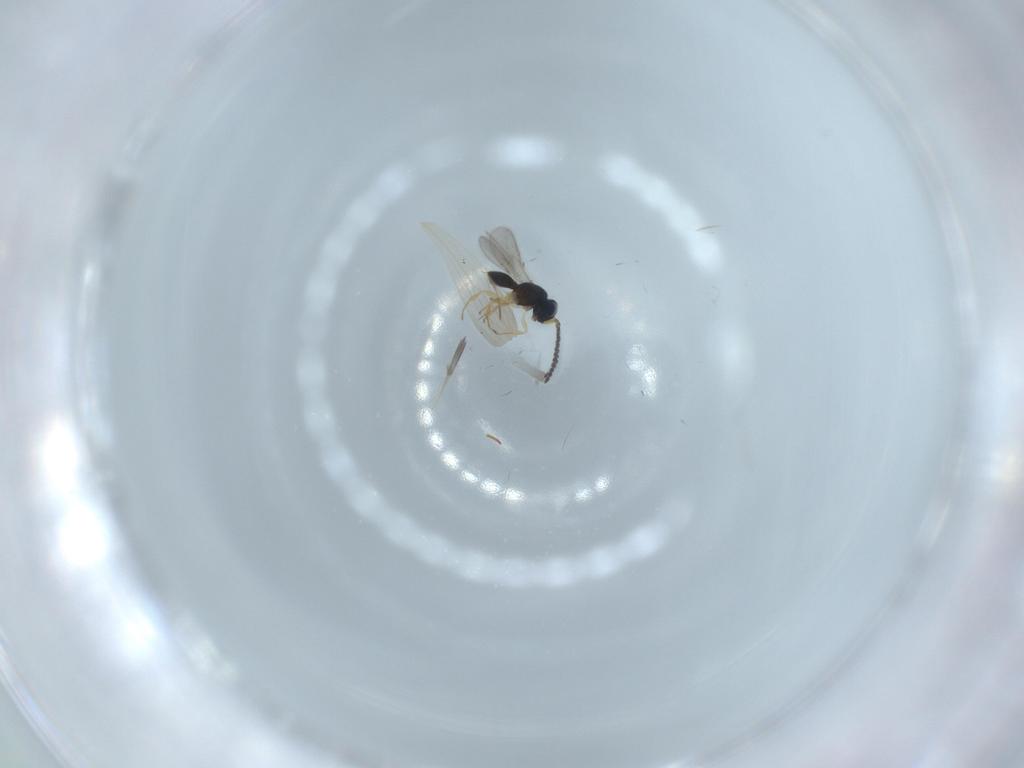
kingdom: Animalia
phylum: Arthropoda
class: Insecta
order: Hymenoptera
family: Scelionidae
